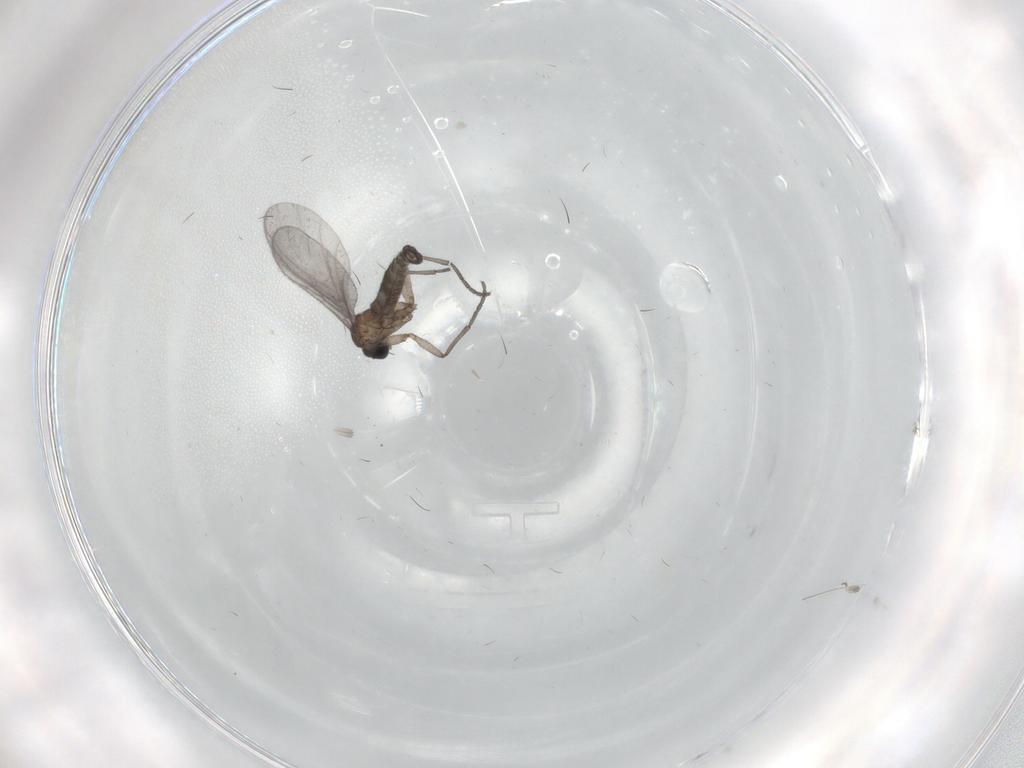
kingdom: Animalia
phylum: Arthropoda
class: Insecta
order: Diptera
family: Sciaridae
